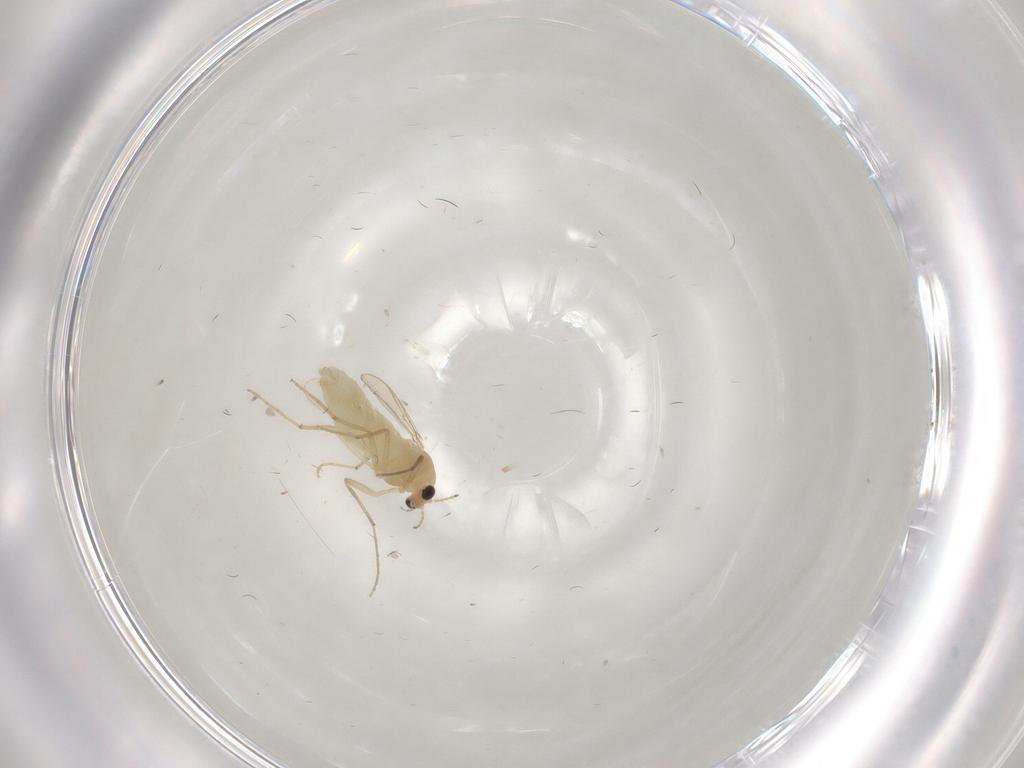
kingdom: Animalia
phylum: Arthropoda
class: Insecta
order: Diptera
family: Chironomidae
